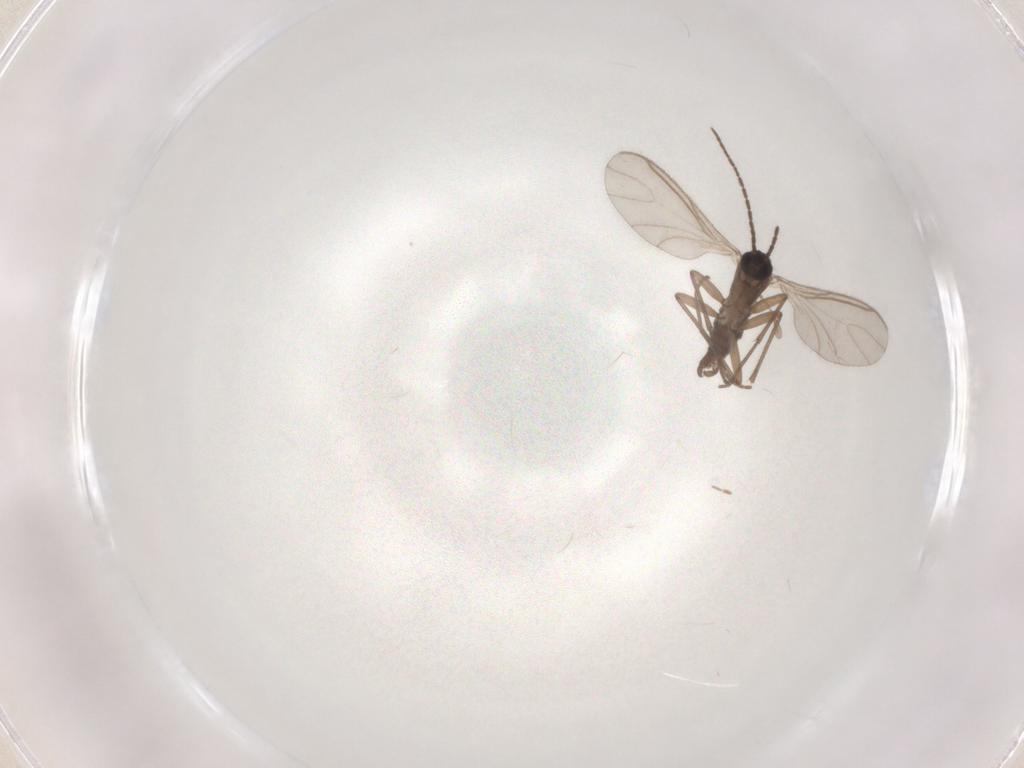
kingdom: Animalia
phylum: Arthropoda
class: Insecta
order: Diptera
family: Chironomidae
